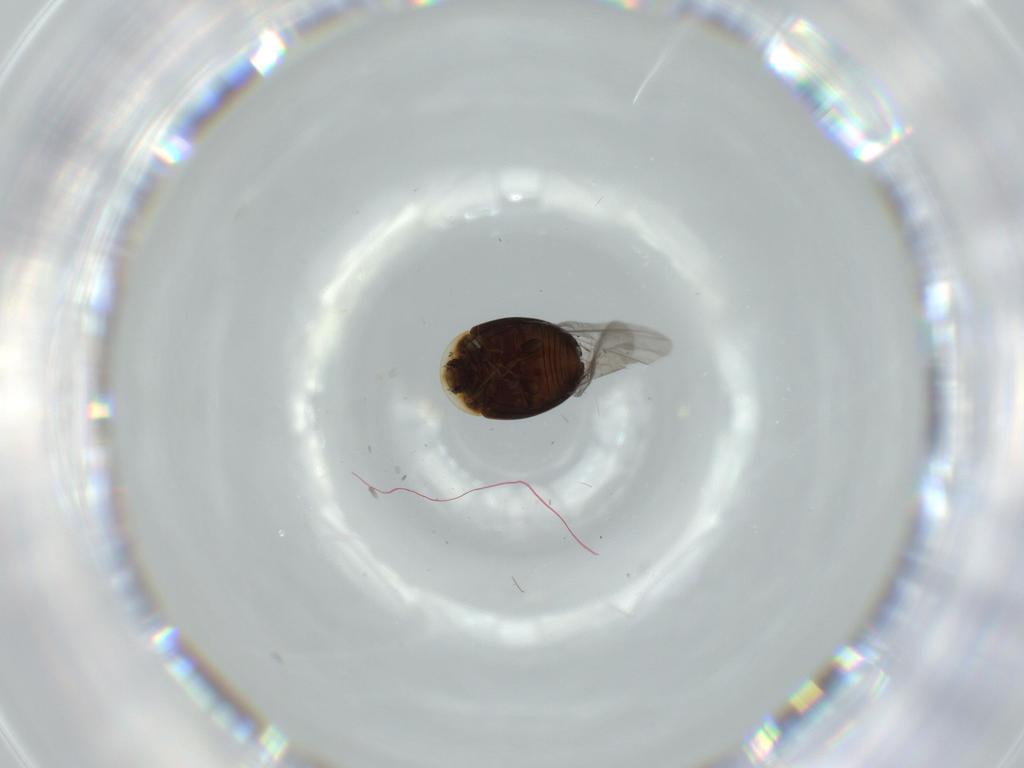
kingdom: Animalia
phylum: Arthropoda
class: Insecta
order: Coleoptera
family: Corylophidae
